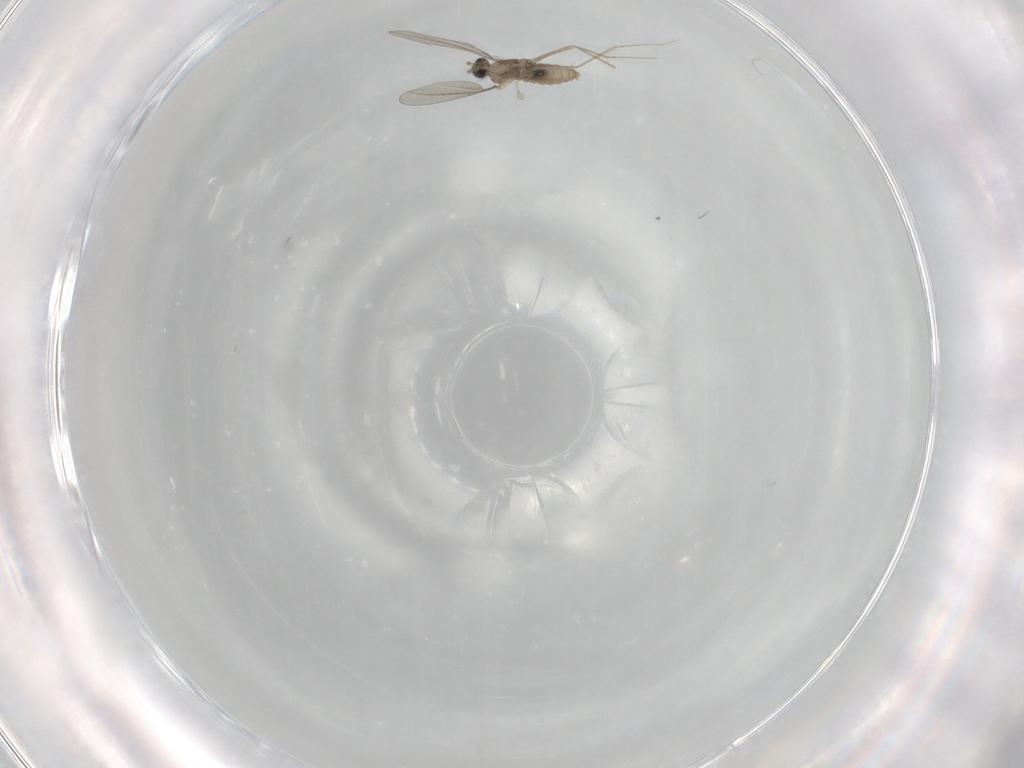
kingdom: Animalia
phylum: Arthropoda
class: Insecta
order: Diptera
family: Cecidomyiidae
